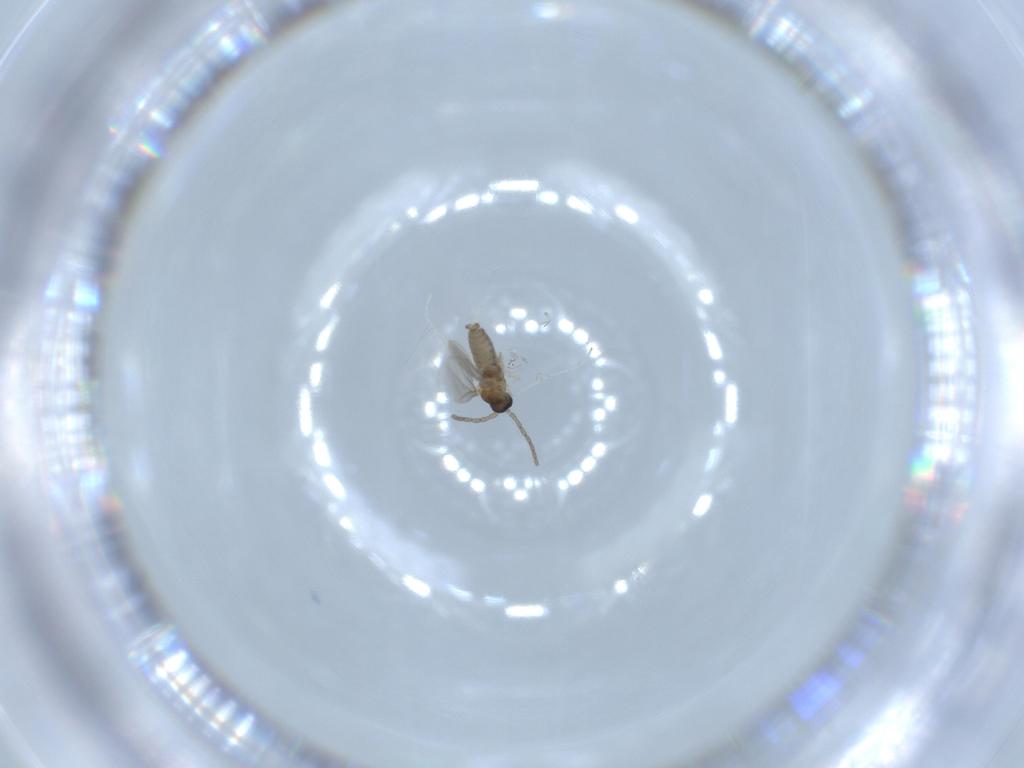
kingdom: Animalia
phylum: Arthropoda
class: Insecta
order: Diptera
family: Cecidomyiidae
